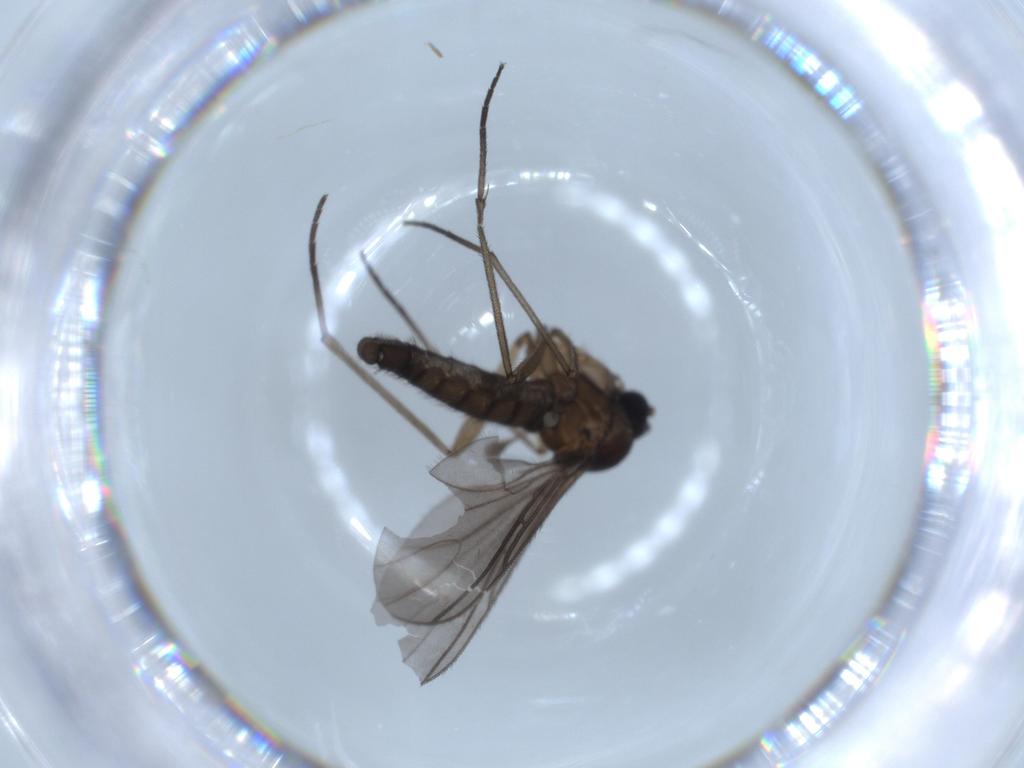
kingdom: Animalia
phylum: Arthropoda
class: Insecta
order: Diptera
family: Sciaridae
